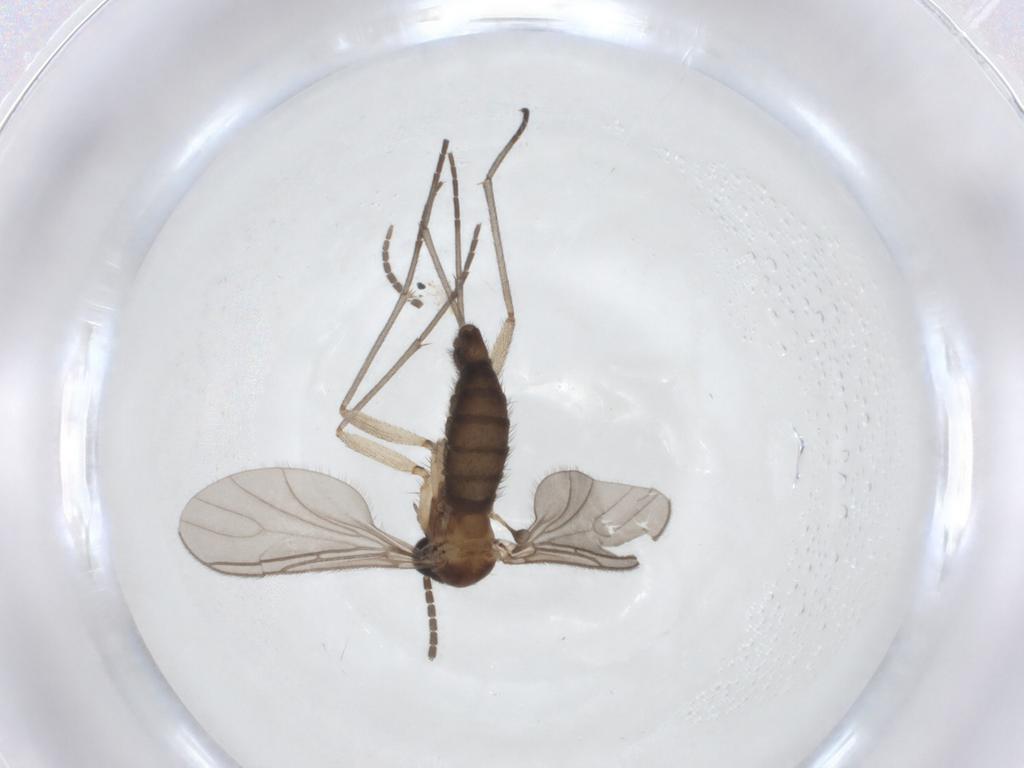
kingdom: Animalia
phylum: Arthropoda
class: Insecta
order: Diptera
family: Sciaridae
